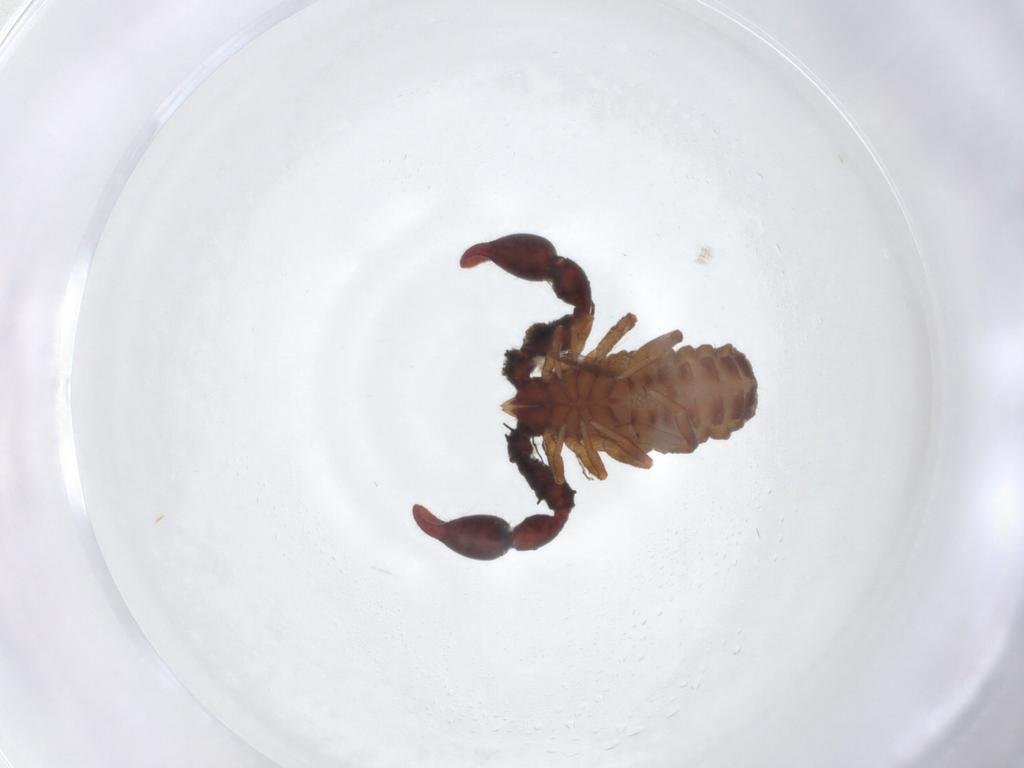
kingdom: Animalia
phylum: Arthropoda
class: Arachnida
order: Pseudoscorpiones
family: Chernetidae
